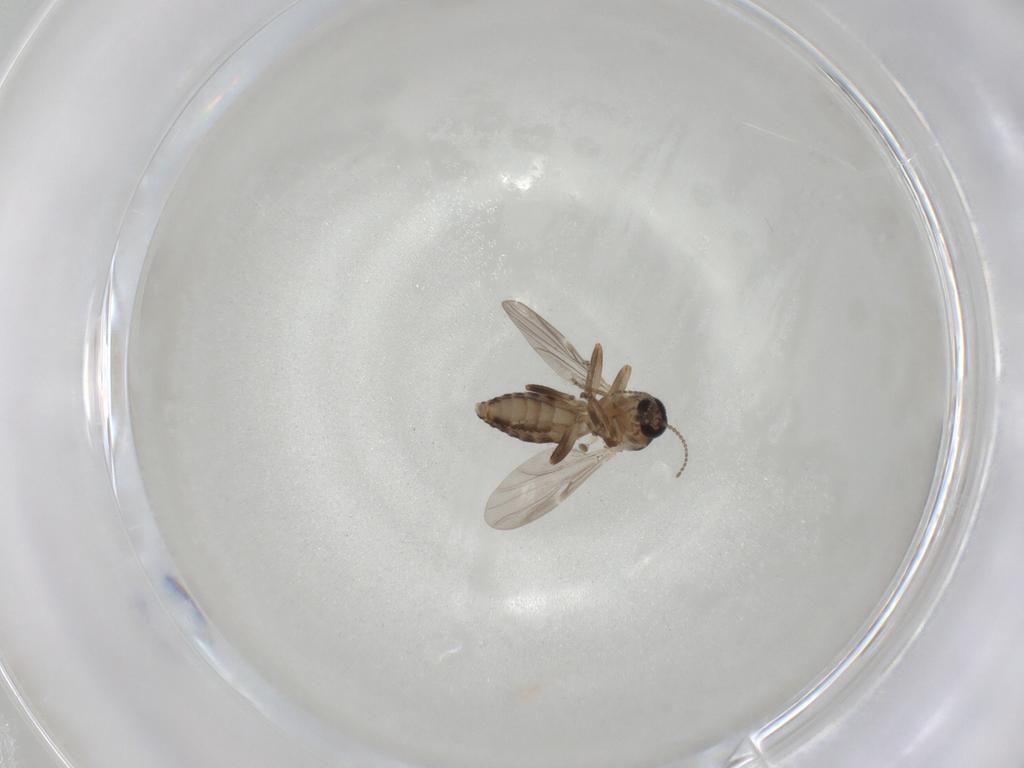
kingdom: Animalia
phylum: Arthropoda
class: Insecta
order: Diptera
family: Ceratopogonidae
